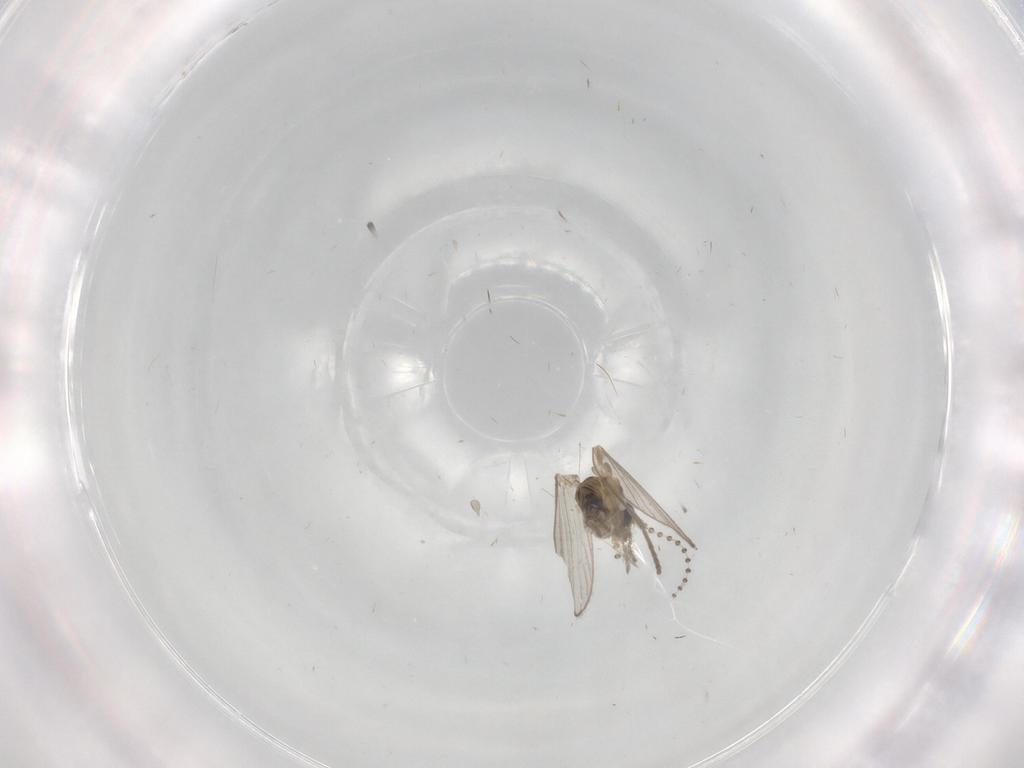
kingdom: Animalia
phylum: Arthropoda
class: Insecta
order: Diptera
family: Psychodidae
